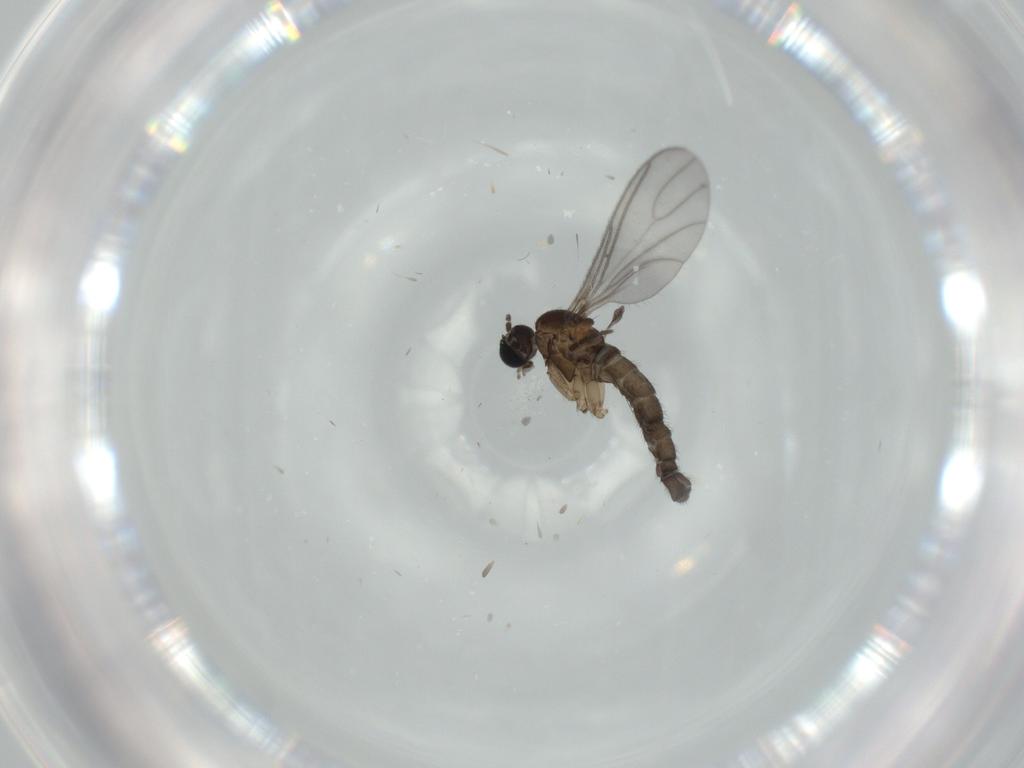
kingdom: Animalia
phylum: Arthropoda
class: Insecta
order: Diptera
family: Sciaridae
